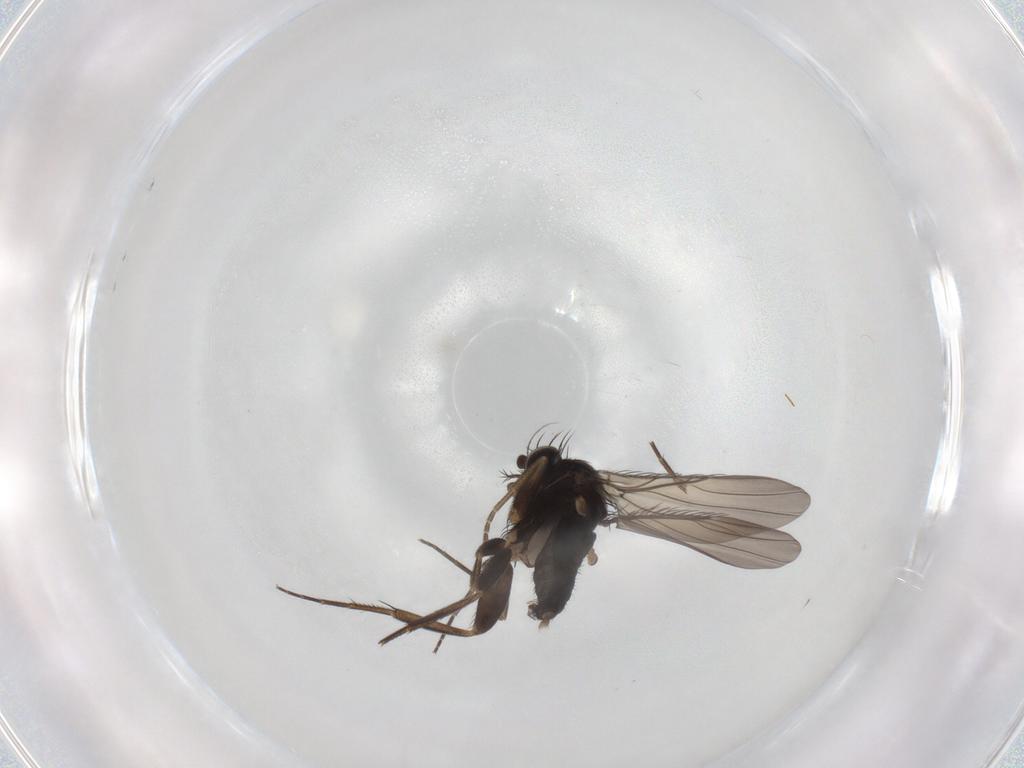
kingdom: Animalia
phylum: Arthropoda
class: Insecta
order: Diptera
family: Phoridae
